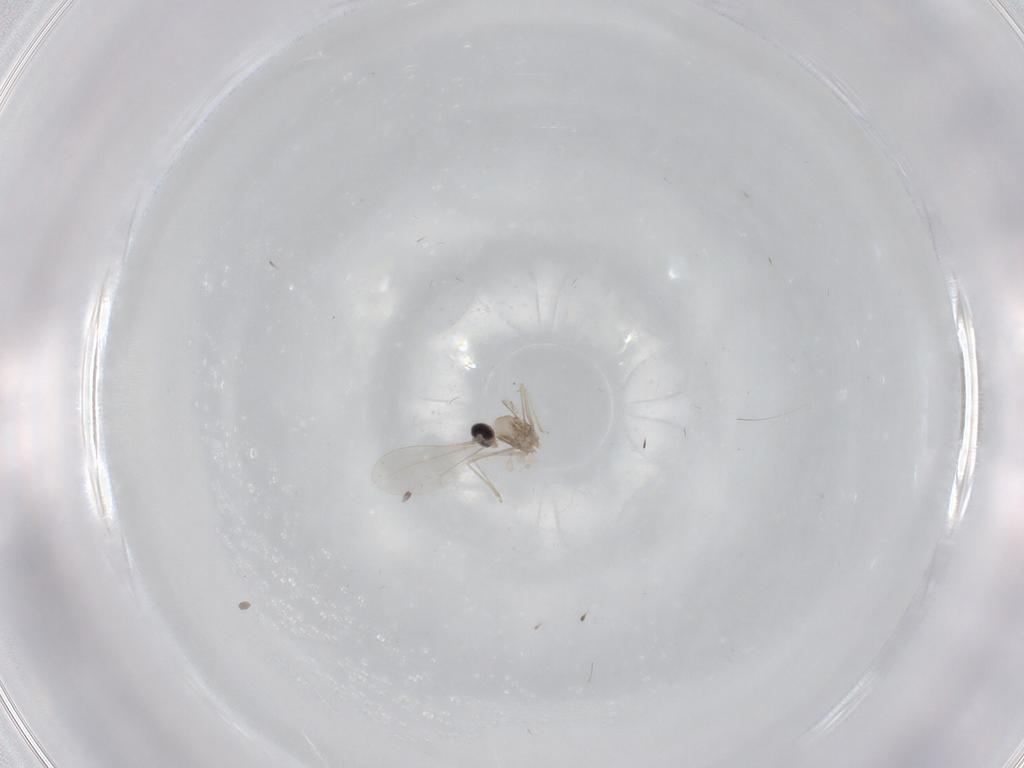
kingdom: Animalia
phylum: Arthropoda
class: Insecta
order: Diptera
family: Cecidomyiidae
